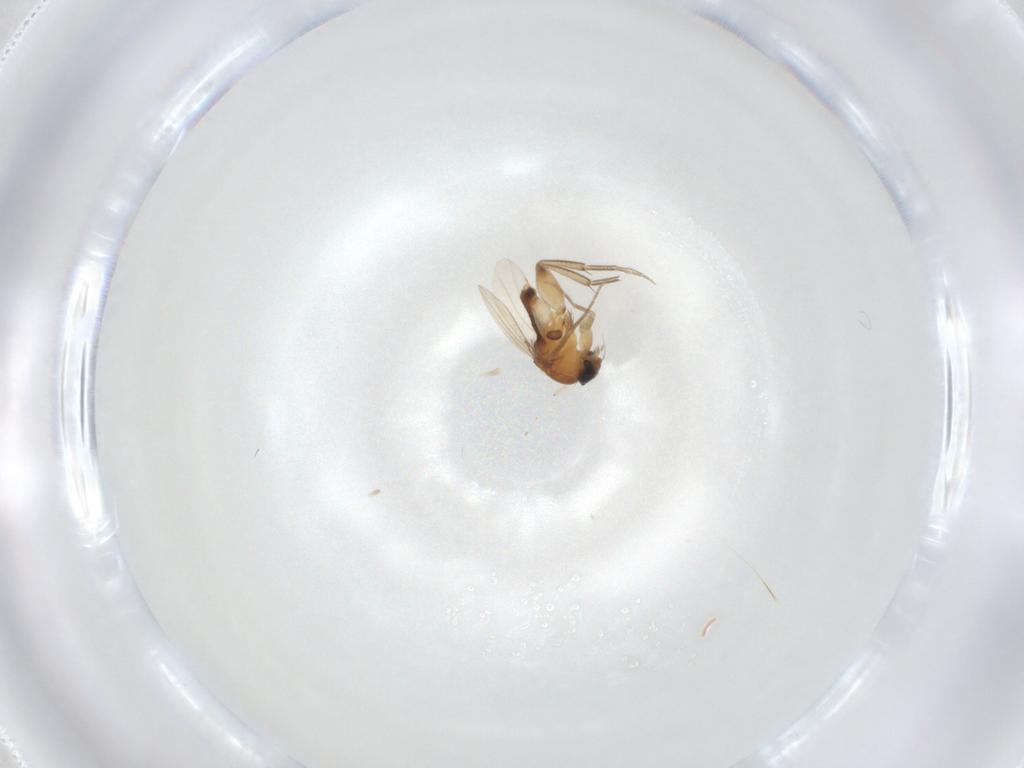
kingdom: Animalia
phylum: Arthropoda
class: Insecta
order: Diptera
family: Phoridae
